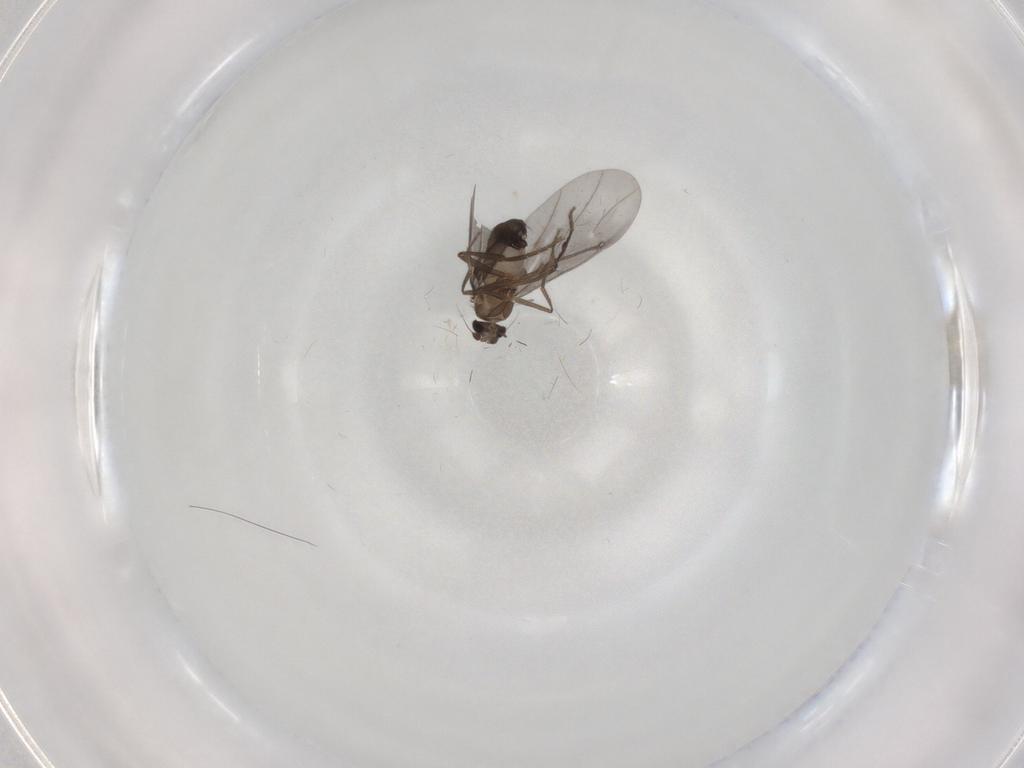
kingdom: Animalia
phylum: Arthropoda
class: Insecta
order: Diptera
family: Phoridae
